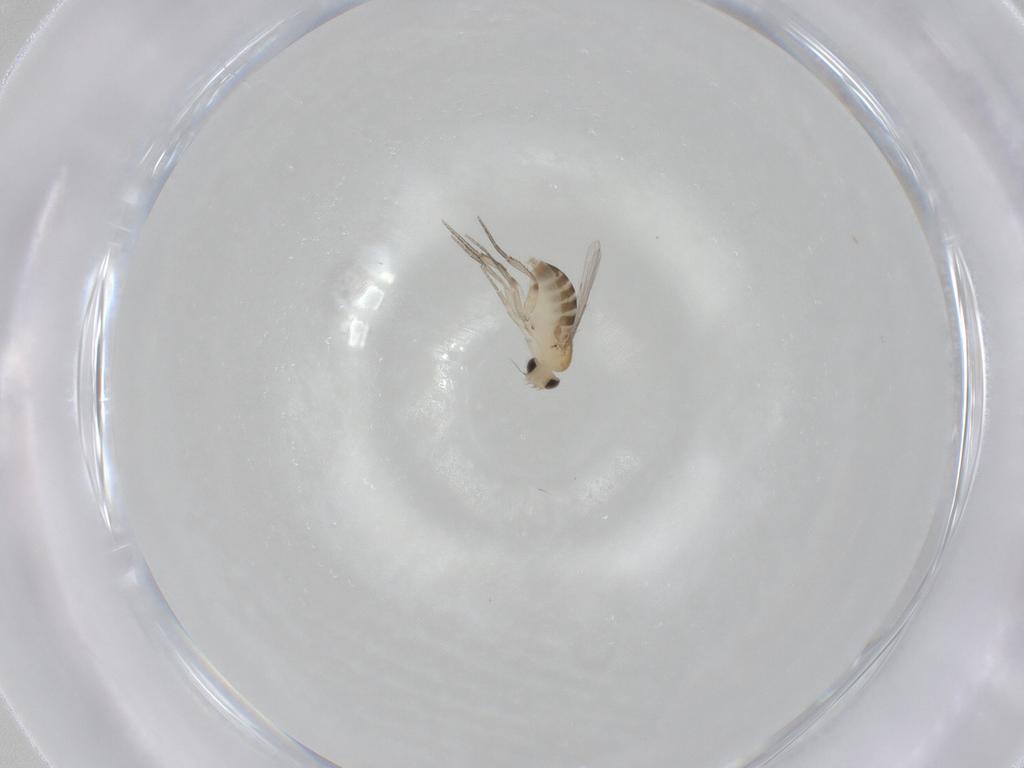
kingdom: Animalia
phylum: Arthropoda
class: Insecta
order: Diptera
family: Cecidomyiidae
